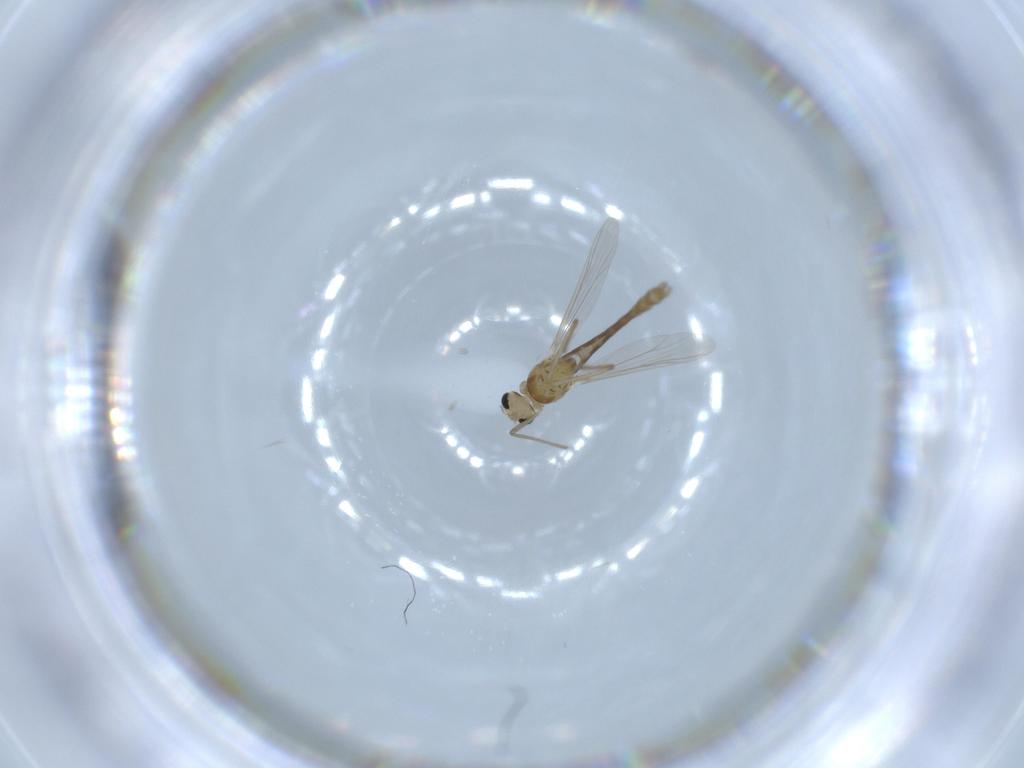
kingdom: Animalia
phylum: Arthropoda
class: Insecta
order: Diptera
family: Chironomidae
